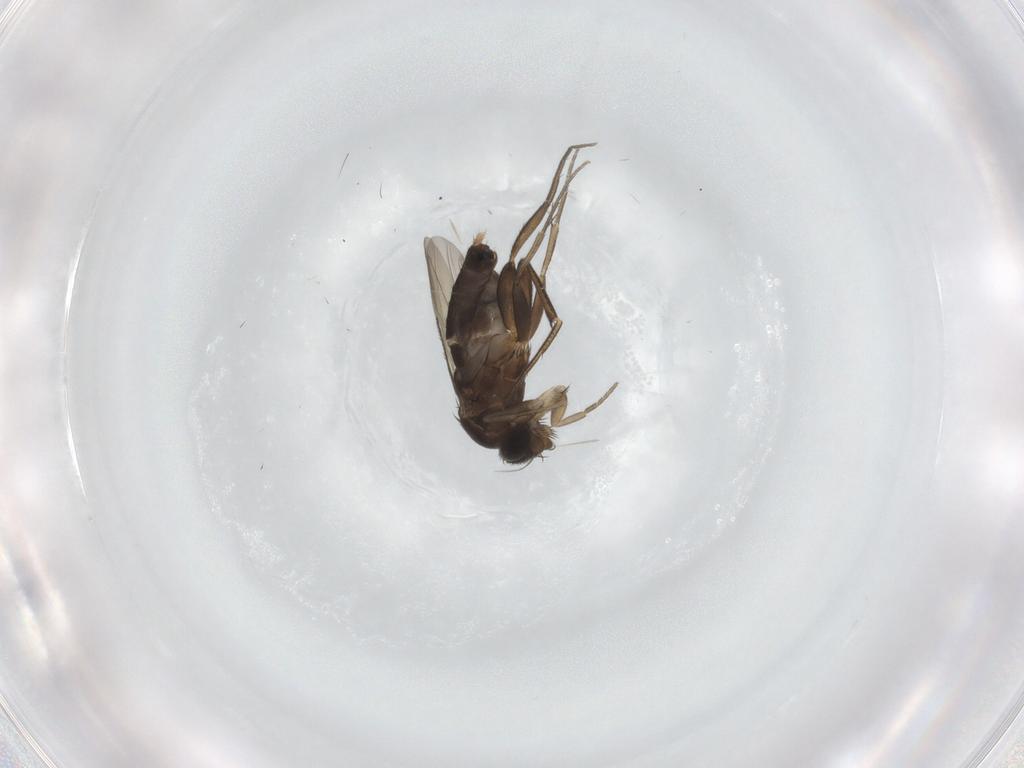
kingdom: Animalia
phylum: Arthropoda
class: Insecta
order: Diptera
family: Phoridae
